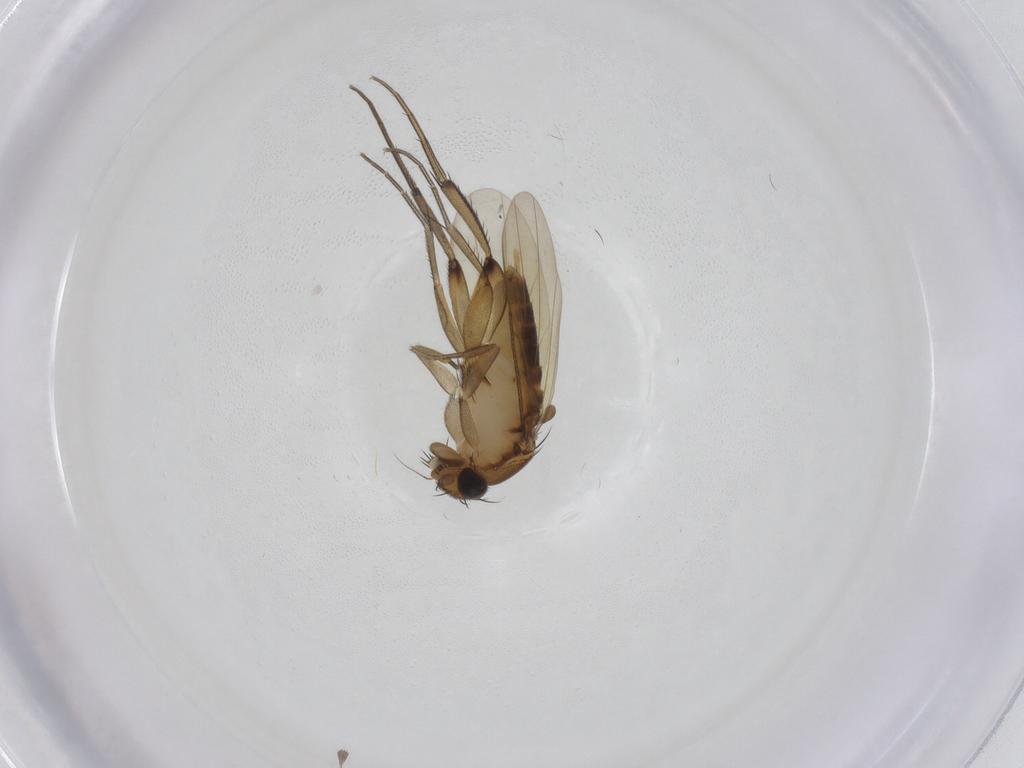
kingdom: Animalia
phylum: Arthropoda
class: Insecta
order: Diptera
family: Phoridae
